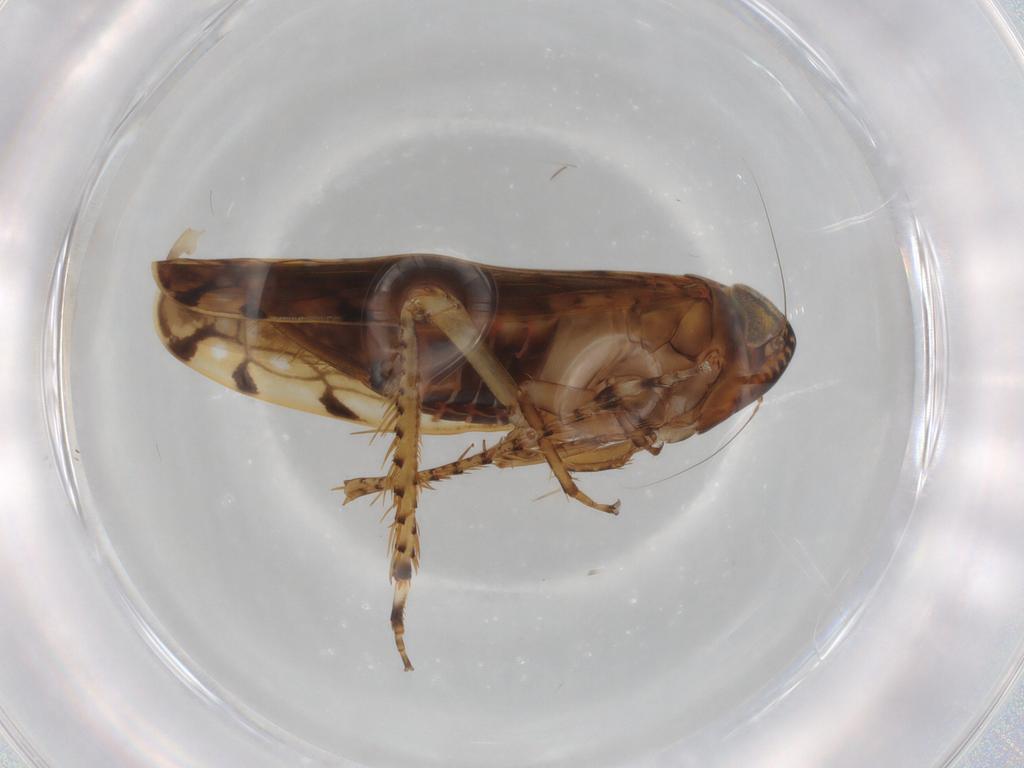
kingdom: Animalia
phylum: Arthropoda
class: Insecta
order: Hemiptera
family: Cicadellidae
